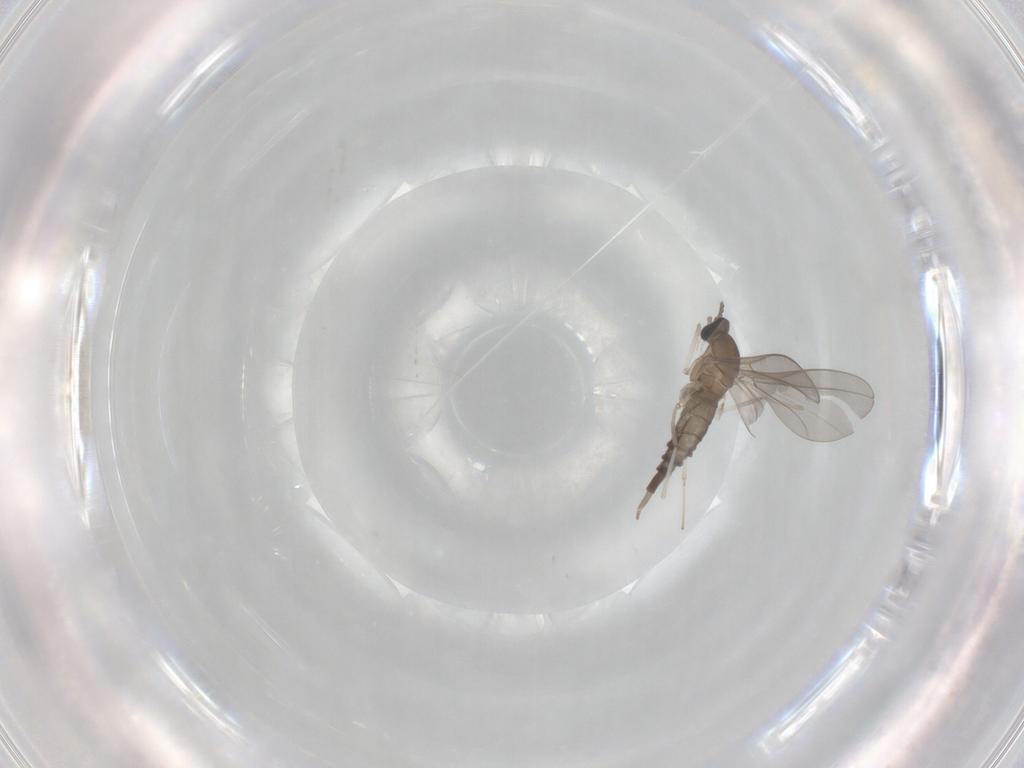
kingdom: Animalia
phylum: Arthropoda
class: Insecta
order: Diptera
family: Cecidomyiidae
